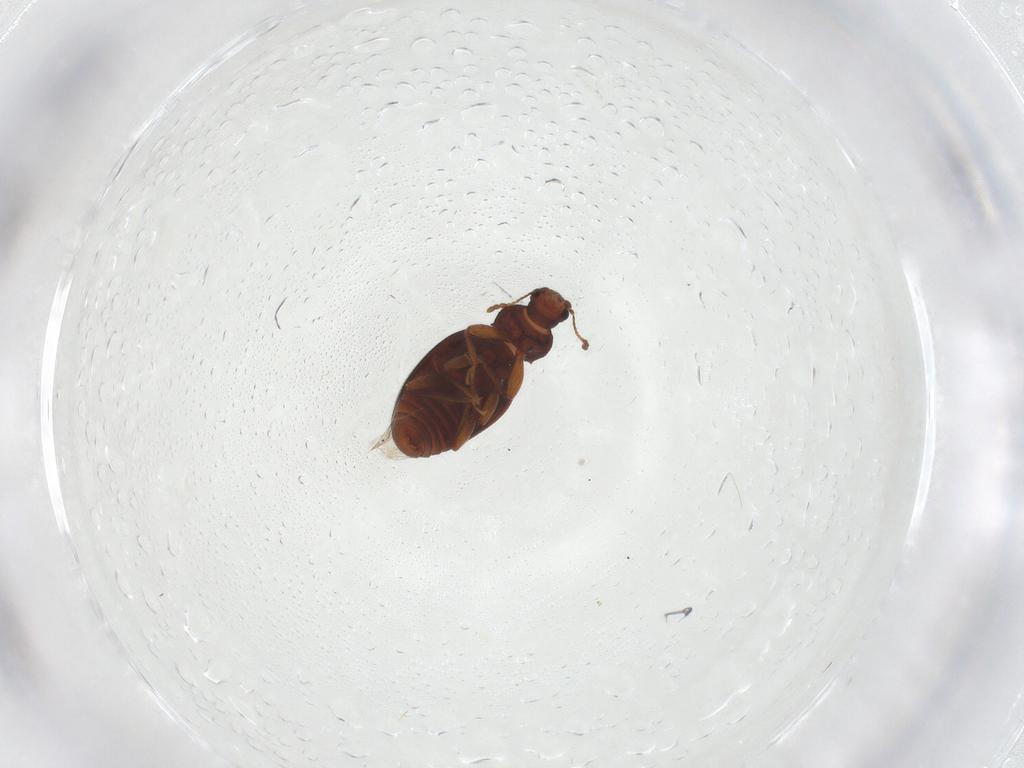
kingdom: Animalia
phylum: Arthropoda
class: Insecta
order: Coleoptera
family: Latridiidae
